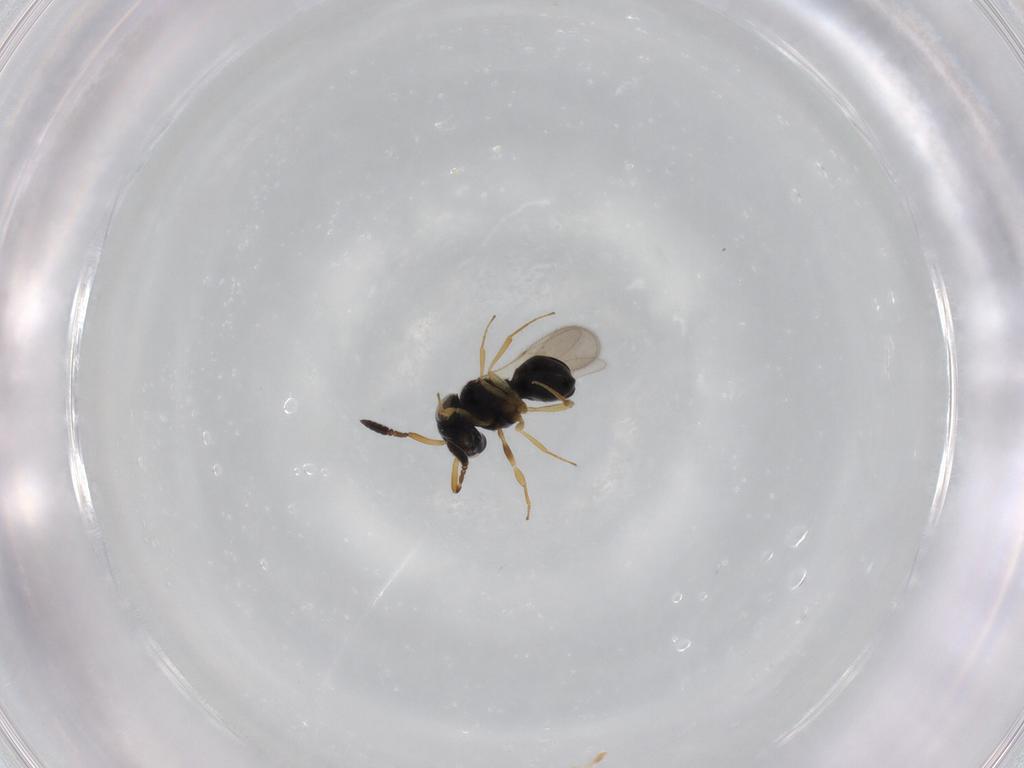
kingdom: Animalia
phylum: Arthropoda
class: Insecta
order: Hymenoptera
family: Scelionidae
